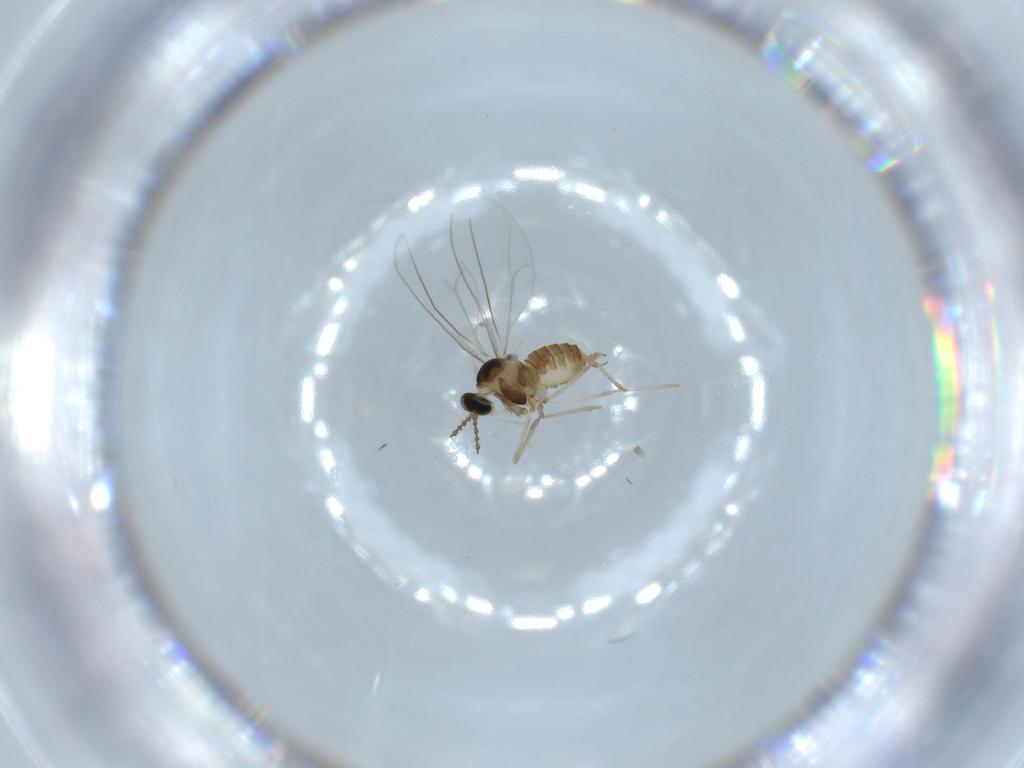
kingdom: Animalia
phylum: Arthropoda
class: Insecta
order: Diptera
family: Cecidomyiidae
